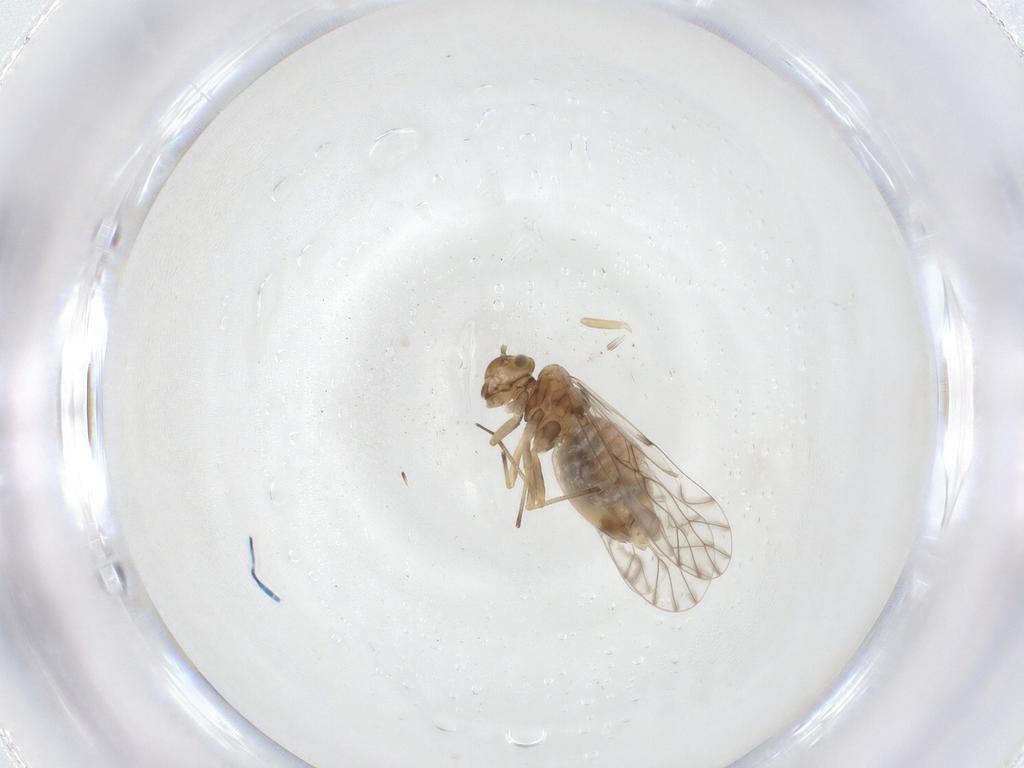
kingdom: Animalia
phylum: Arthropoda
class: Insecta
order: Psocodea
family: Lachesillidae
